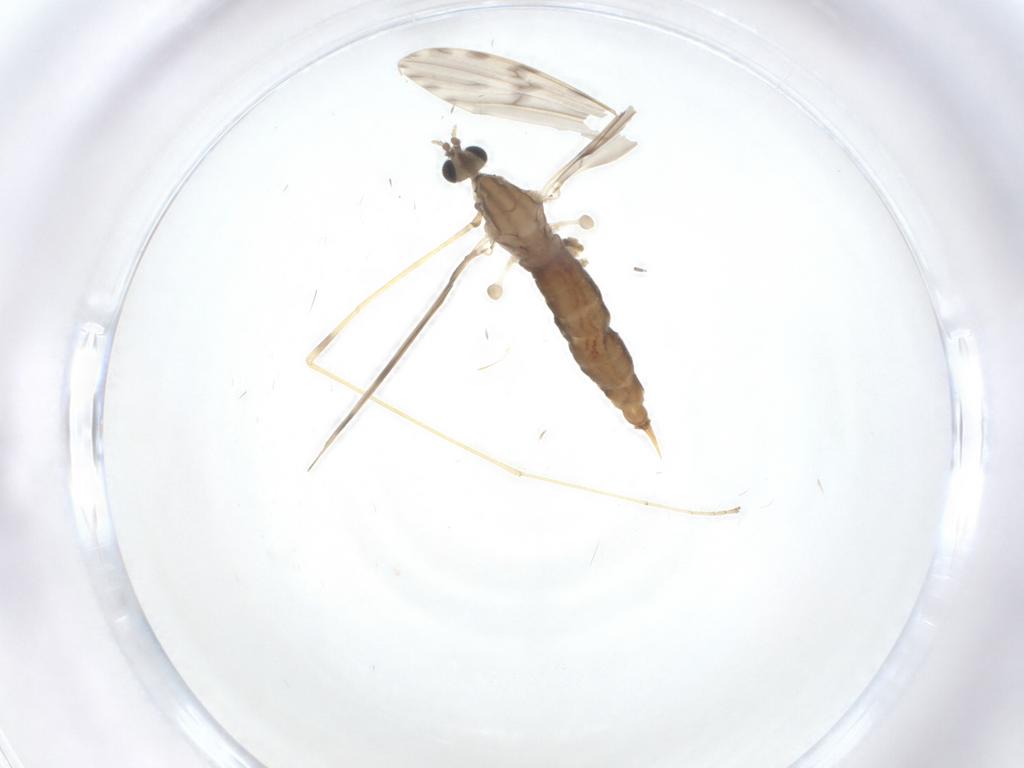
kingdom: Animalia
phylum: Arthropoda
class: Insecta
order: Diptera
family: Limoniidae
